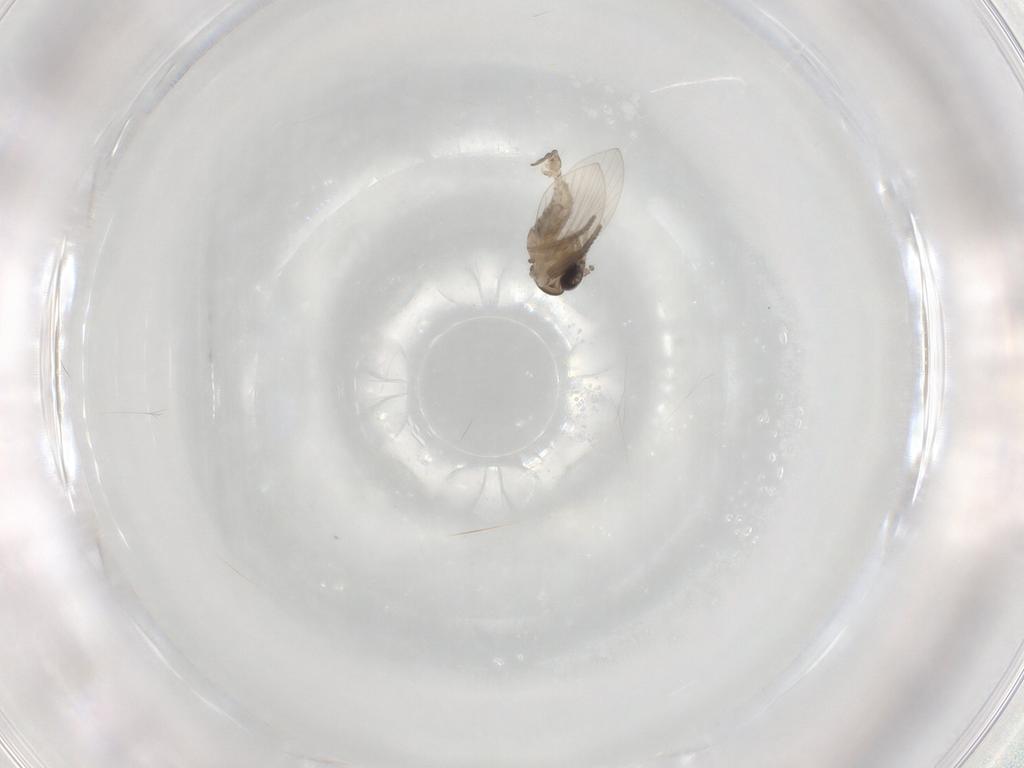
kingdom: Animalia
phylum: Arthropoda
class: Insecta
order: Diptera
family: Psychodidae
